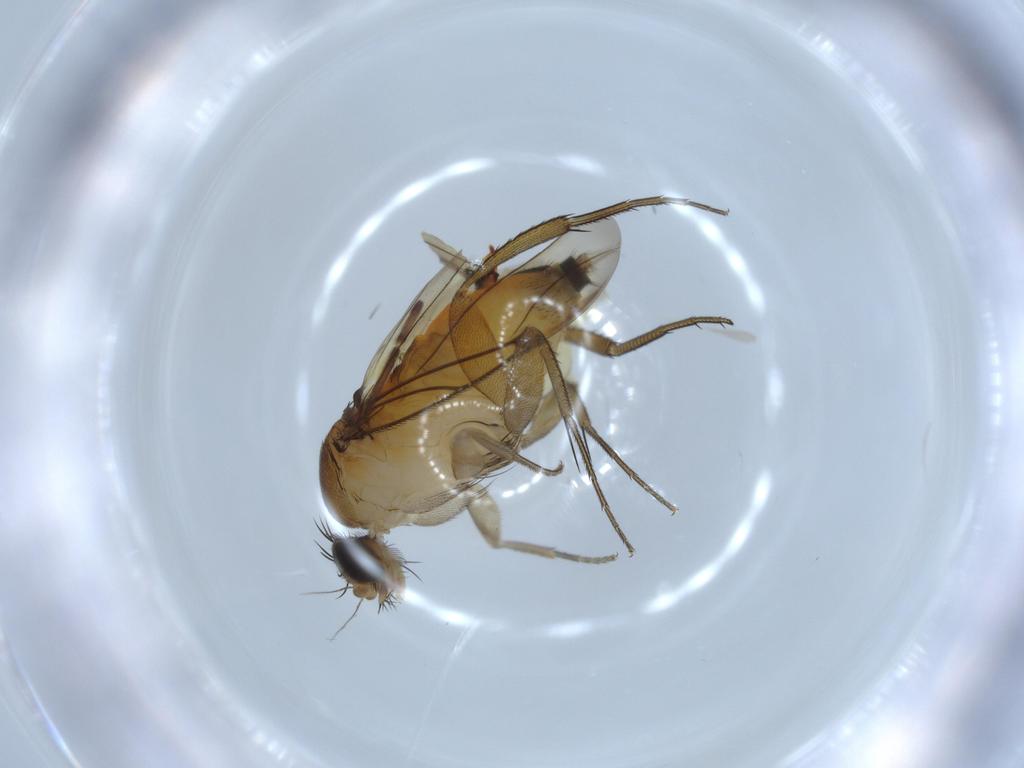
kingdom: Animalia
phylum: Arthropoda
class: Insecta
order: Diptera
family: Phoridae
